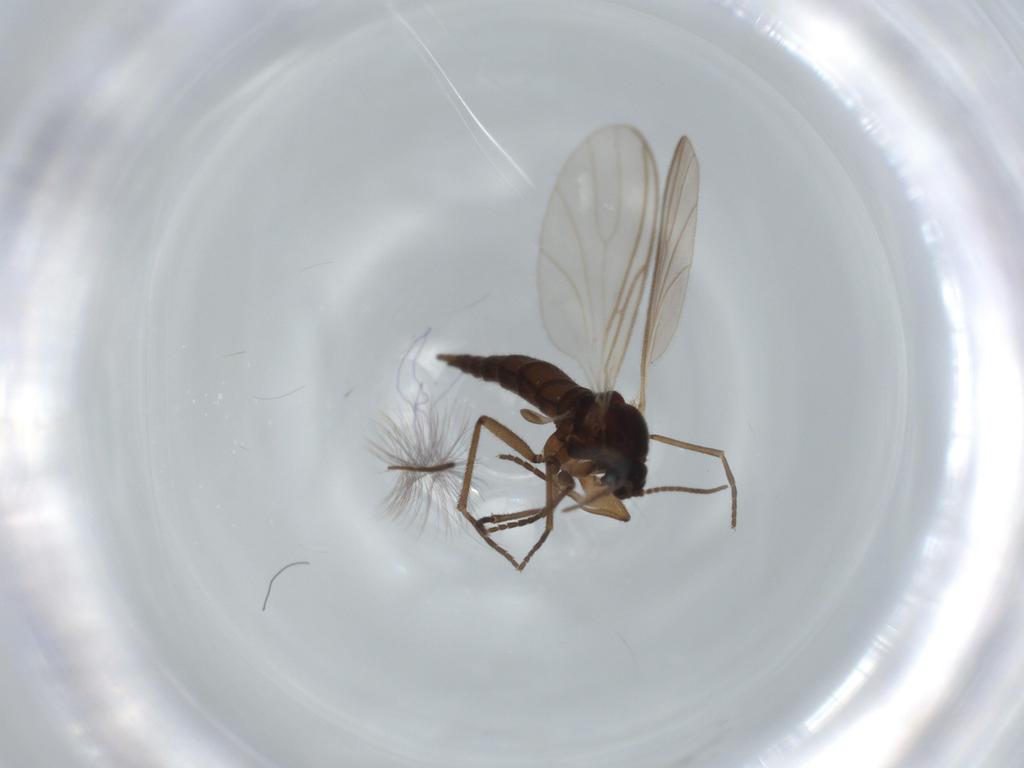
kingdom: Animalia
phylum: Arthropoda
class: Insecta
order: Diptera
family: Sciaridae
